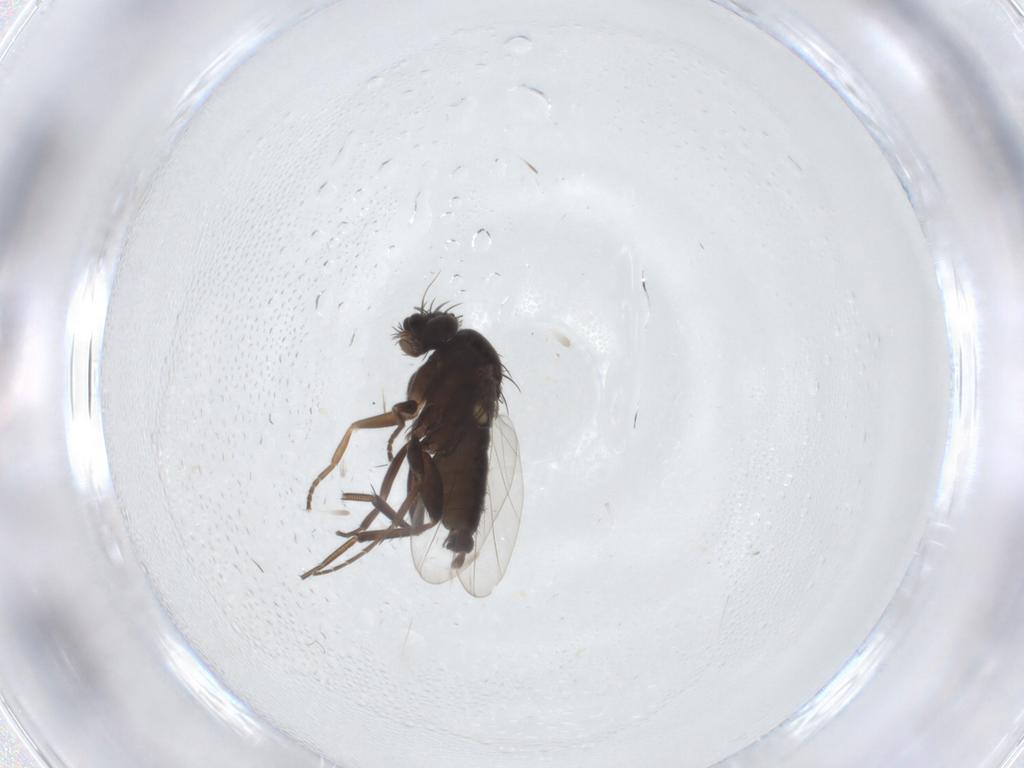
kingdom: Animalia
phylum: Arthropoda
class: Insecta
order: Diptera
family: Phoridae
